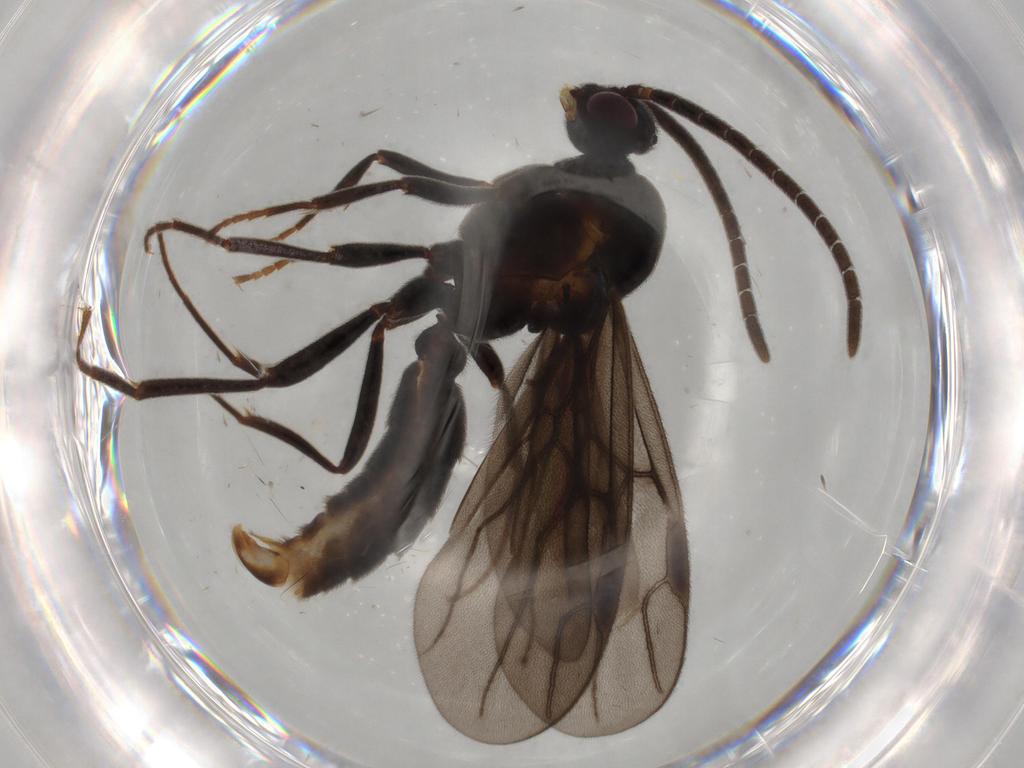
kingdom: Animalia
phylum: Arthropoda
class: Insecta
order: Hymenoptera
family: Formicidae
